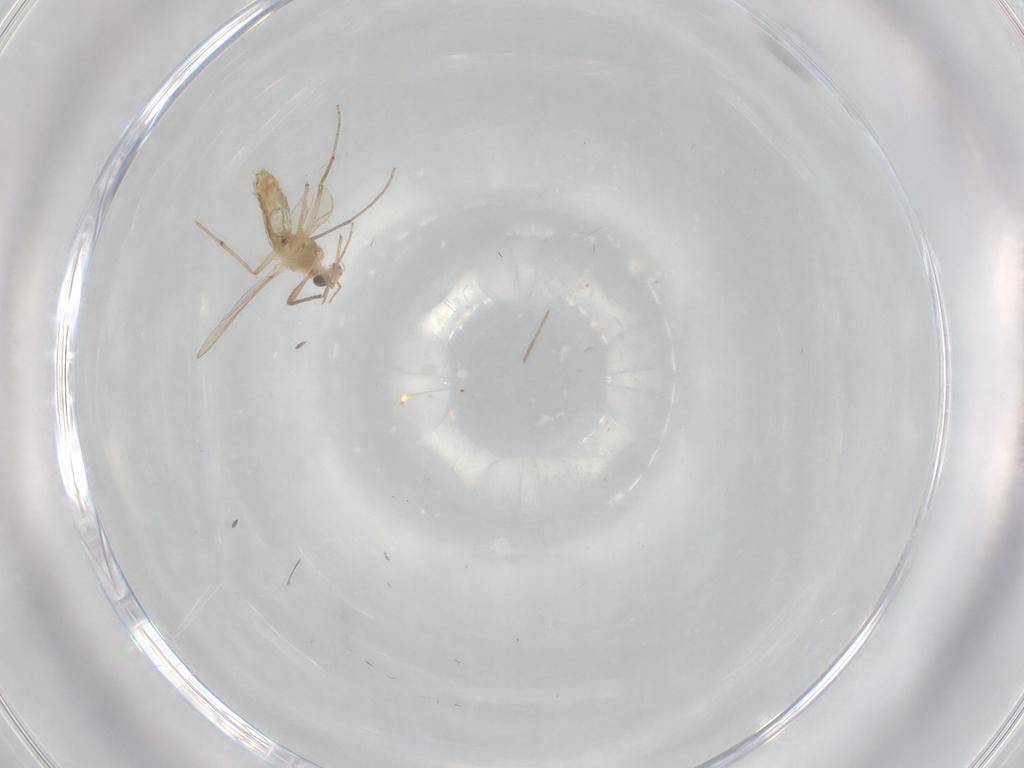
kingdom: Animalia
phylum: Arthropoda
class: Insecta
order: Diptera
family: Chironomidae
